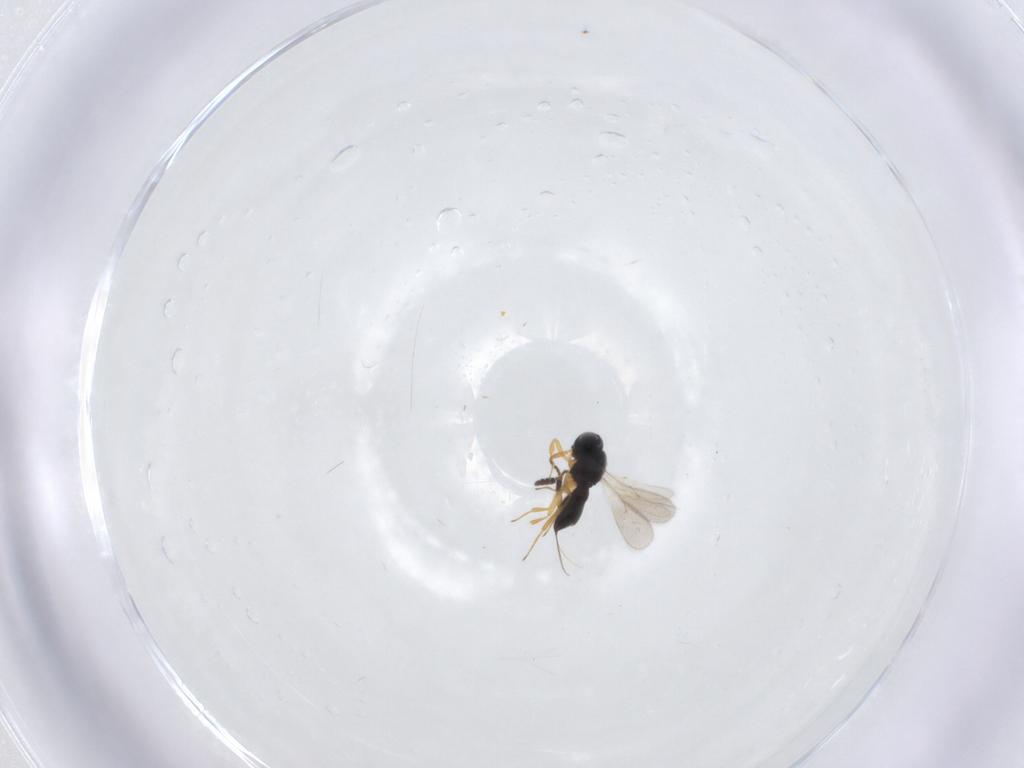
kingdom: Animalia
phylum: Arthropoda
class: Insecta
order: Hymenoptera
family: Scelionidae
